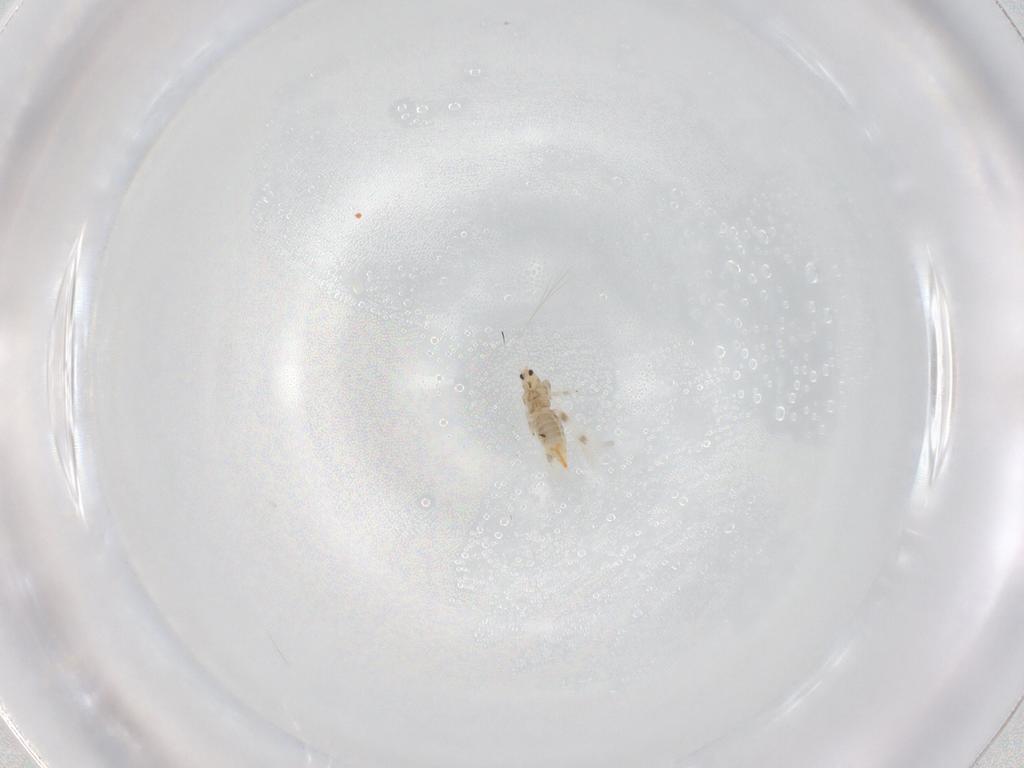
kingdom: Animalia
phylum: Arthropoda
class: Insecta
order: Thysanoptera
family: Thripidae
